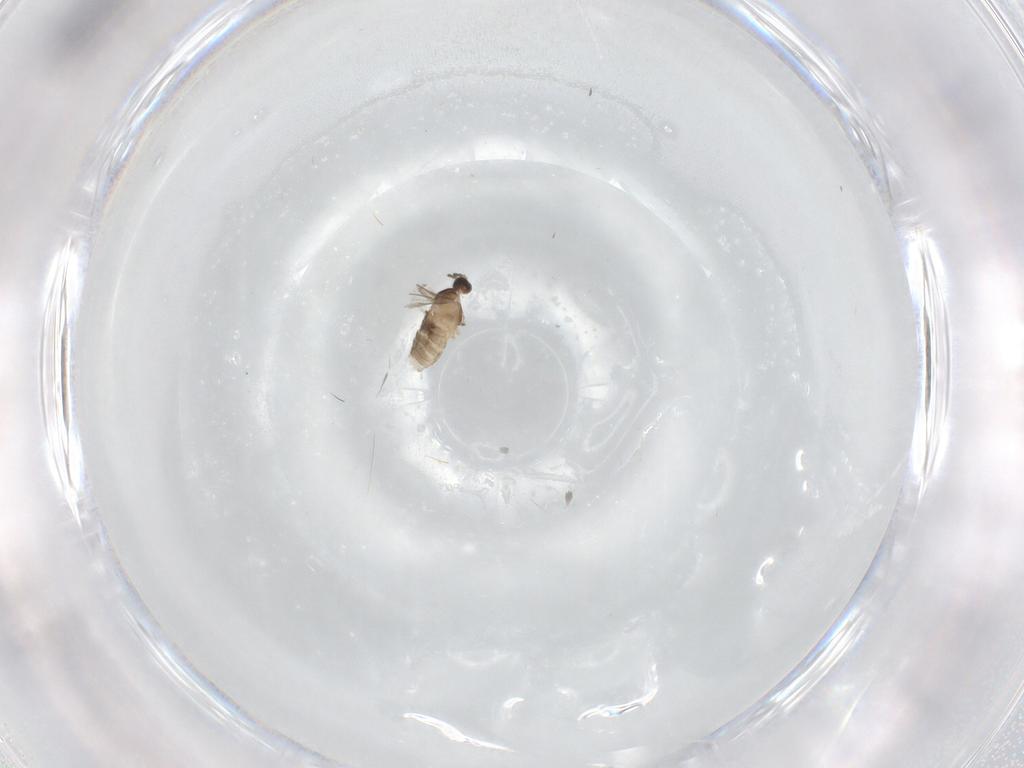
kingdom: Animalia
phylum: Arthropoda
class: Insecta
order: Diptera
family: Cecidomyiidae
